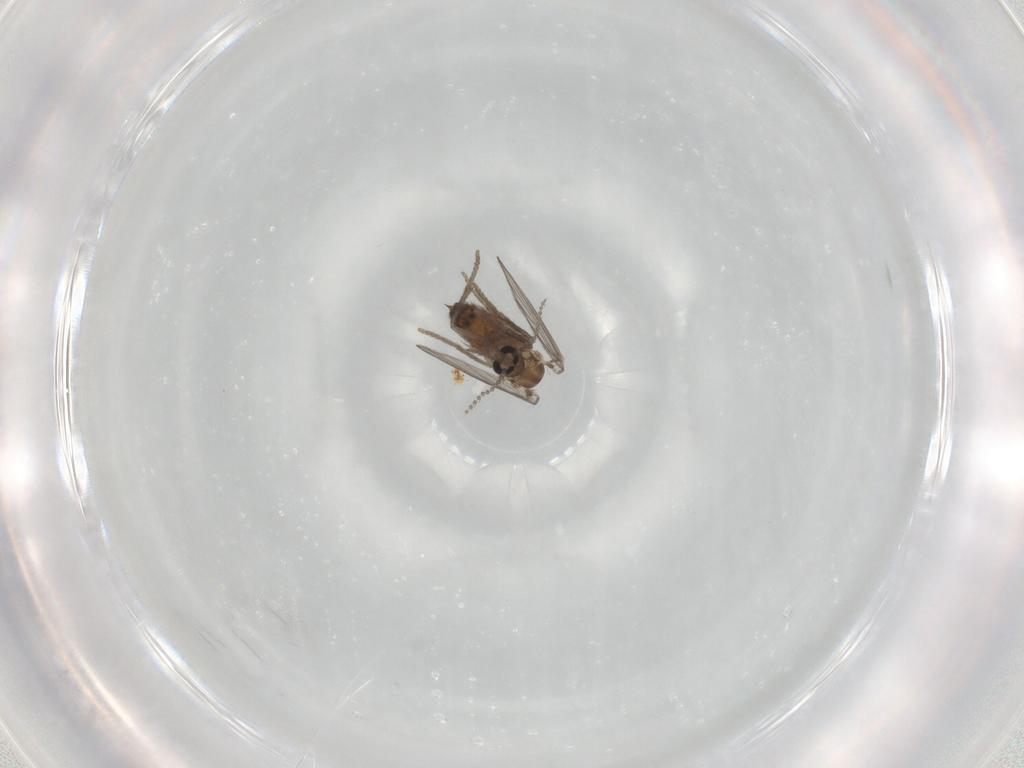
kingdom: Animalia
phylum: Arthropoda
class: Insecta
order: Diptera
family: Psychodidae
